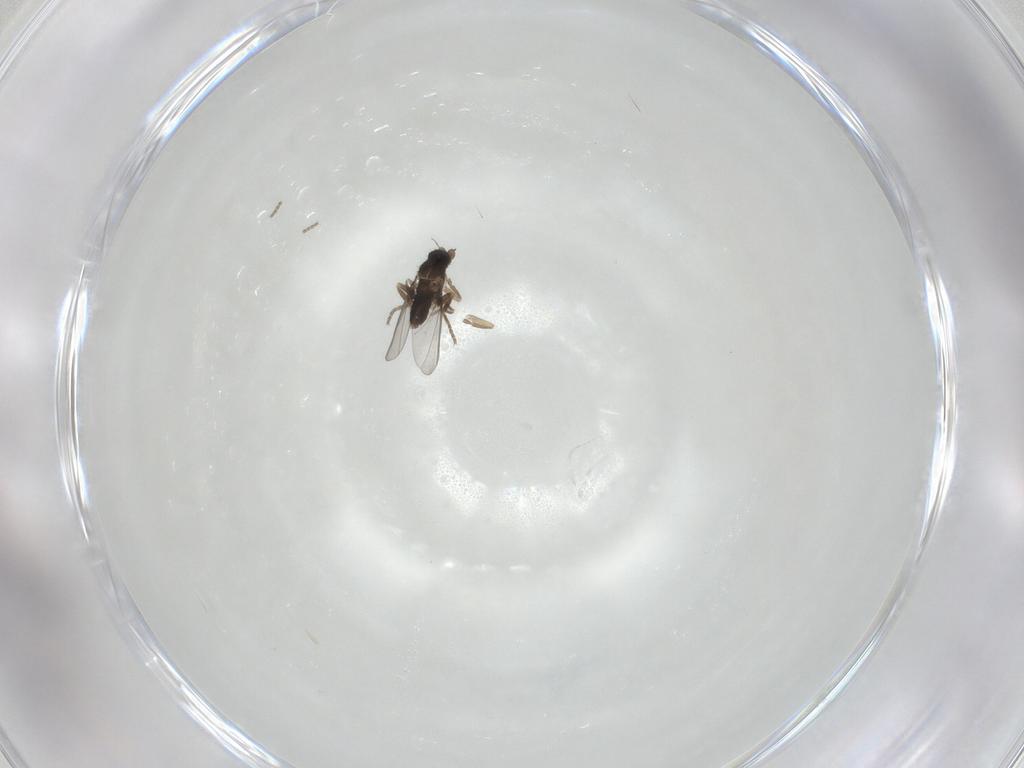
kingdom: Animalia
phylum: Arthropoda
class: Insecta
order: Diptera
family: Phoridae
